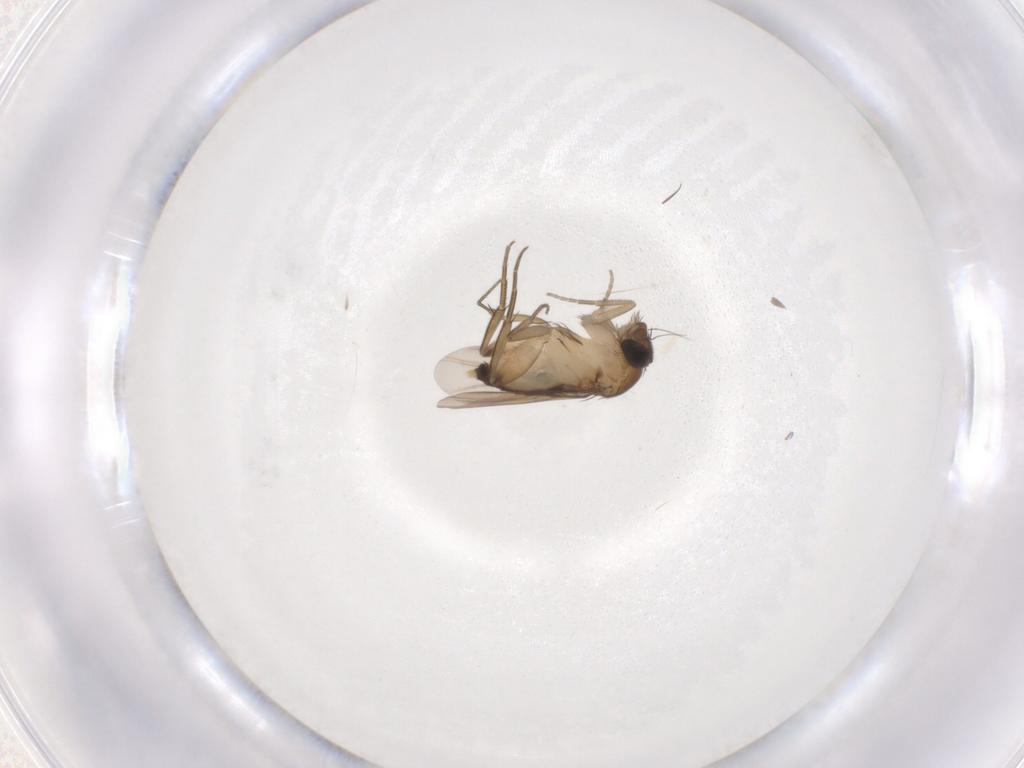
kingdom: Animalia
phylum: Arthropoda
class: Insecta
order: Diptera
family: Phoridae
